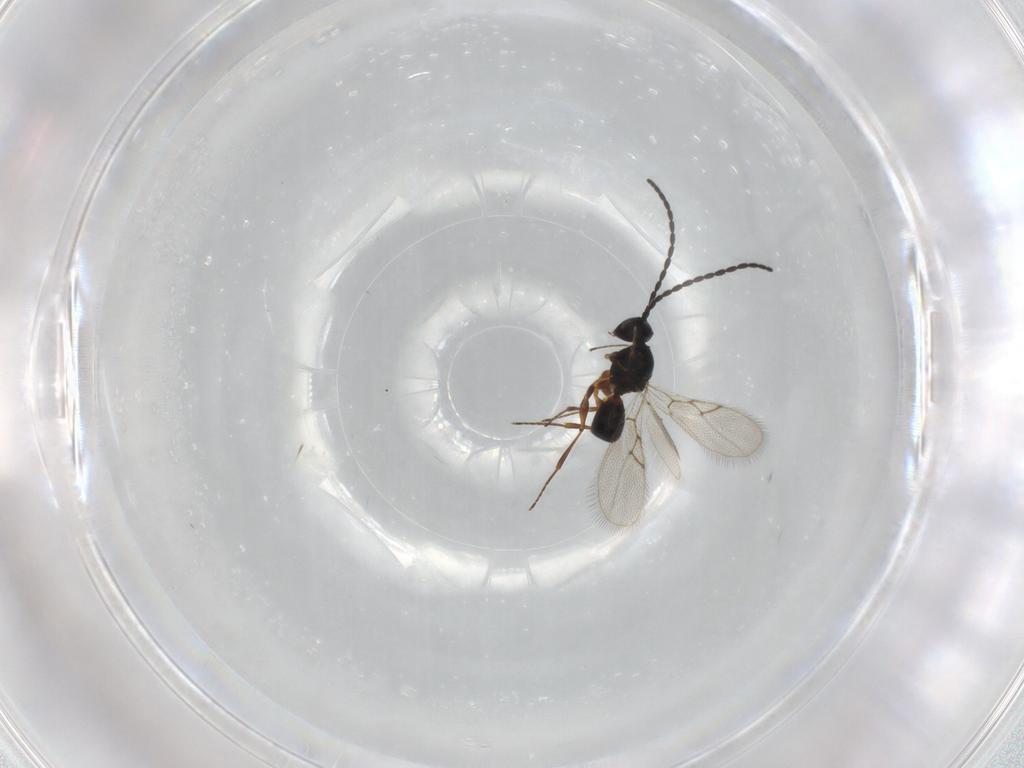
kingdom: Animalia
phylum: Arthropoda
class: Insecta
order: Hymenoptera
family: Figitidae
